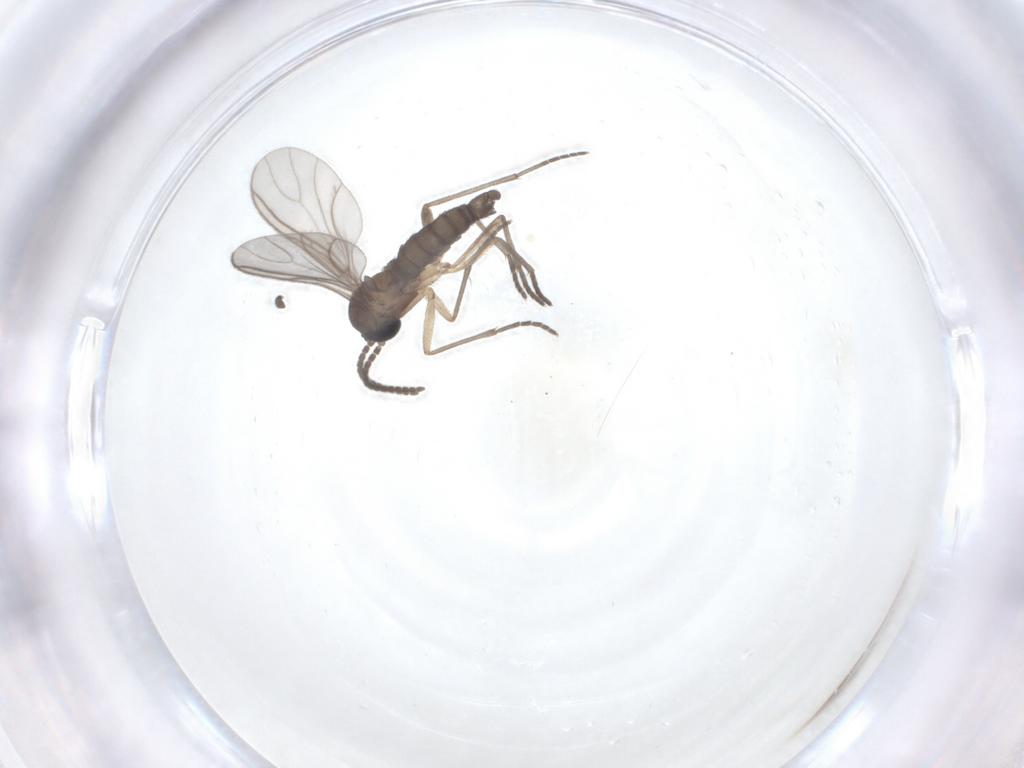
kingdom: Animalia
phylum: Arthropoda
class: Insecta
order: Diptera
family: Sciaridae
